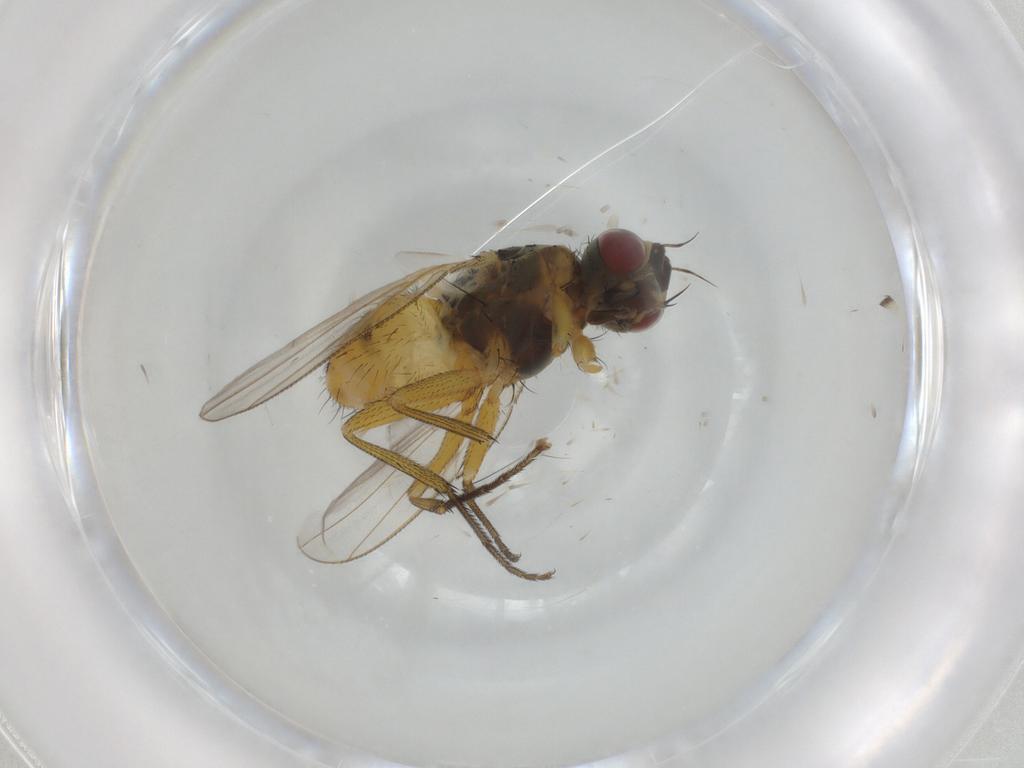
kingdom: Animalia
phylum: Arthropoda
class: Insecta
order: Diptera
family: Muscidae
